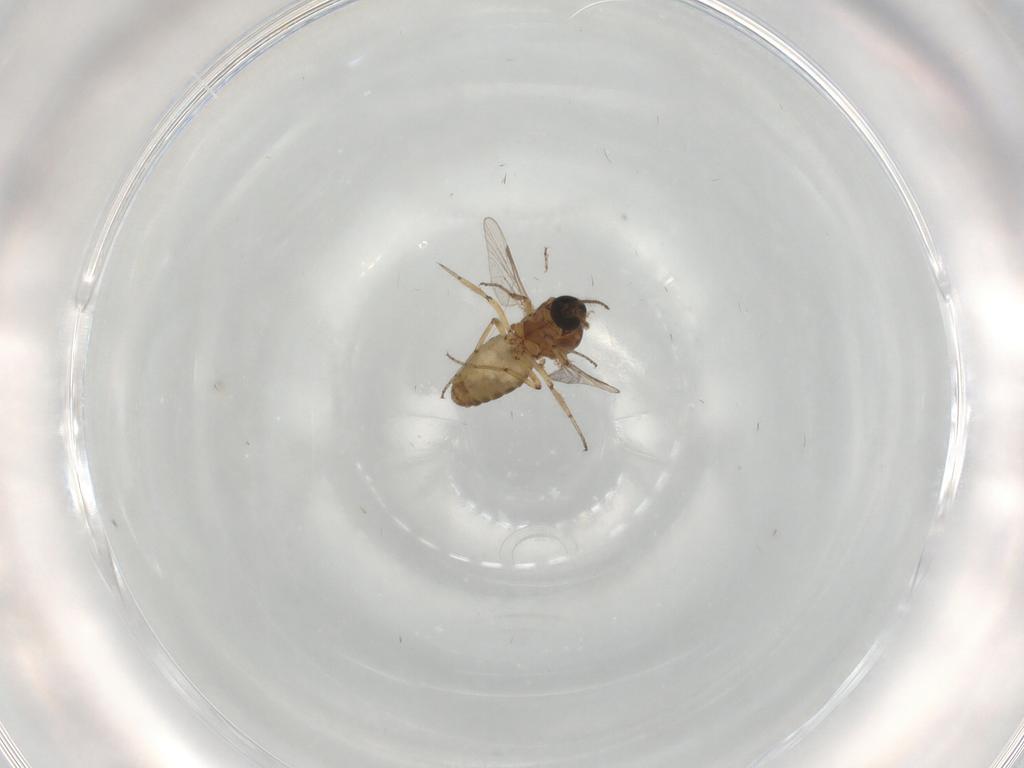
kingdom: Animalia
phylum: Arthropoda
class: Insecta
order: Diptera
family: Ceratopogonidae
